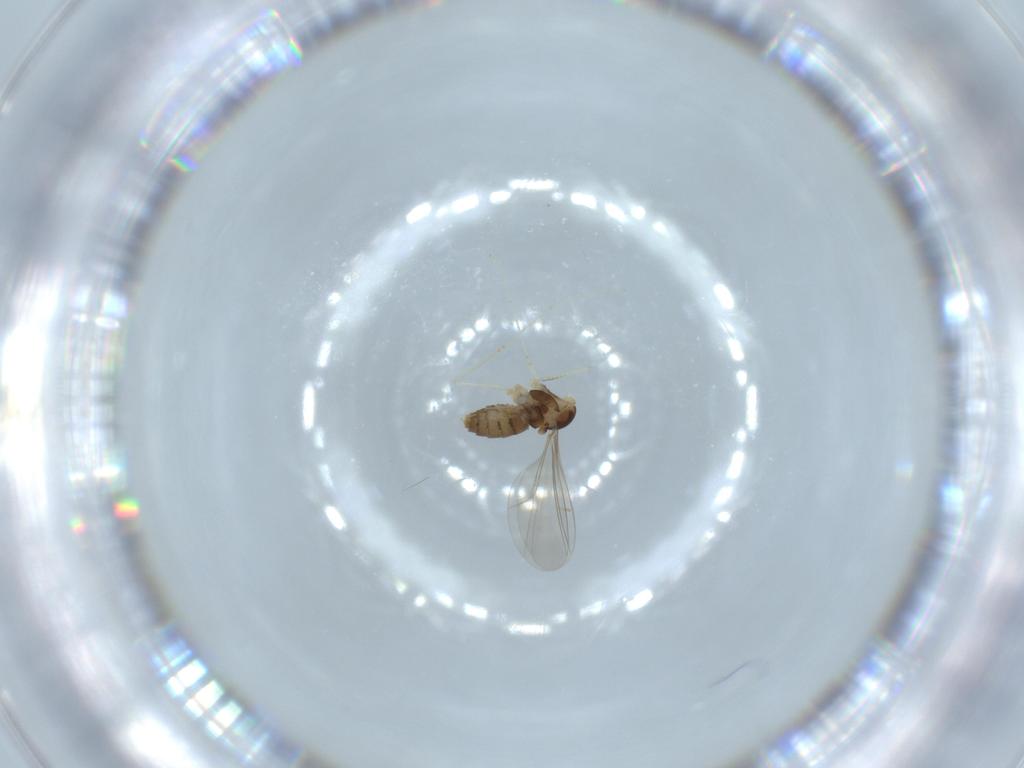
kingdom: Animalia
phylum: Arthropoda
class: Insecta
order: Diptera
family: Cecidomyiidae
